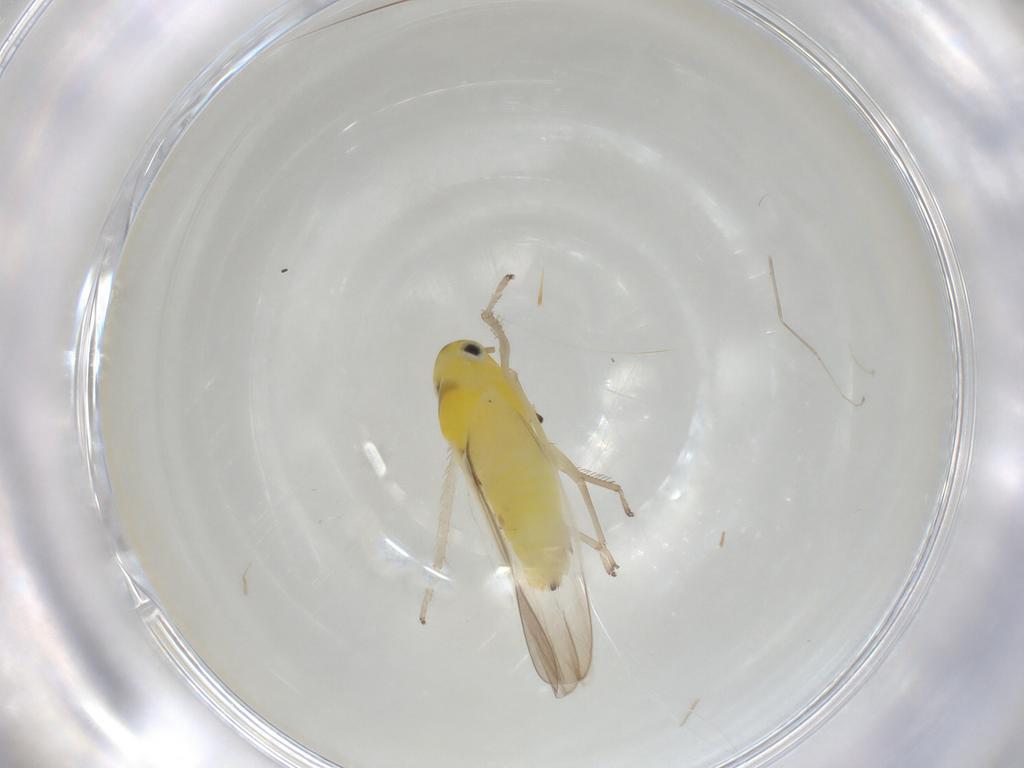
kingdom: Animalia
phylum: Arthropoda
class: Insecta
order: Hemiptera
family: Cicadellidae
